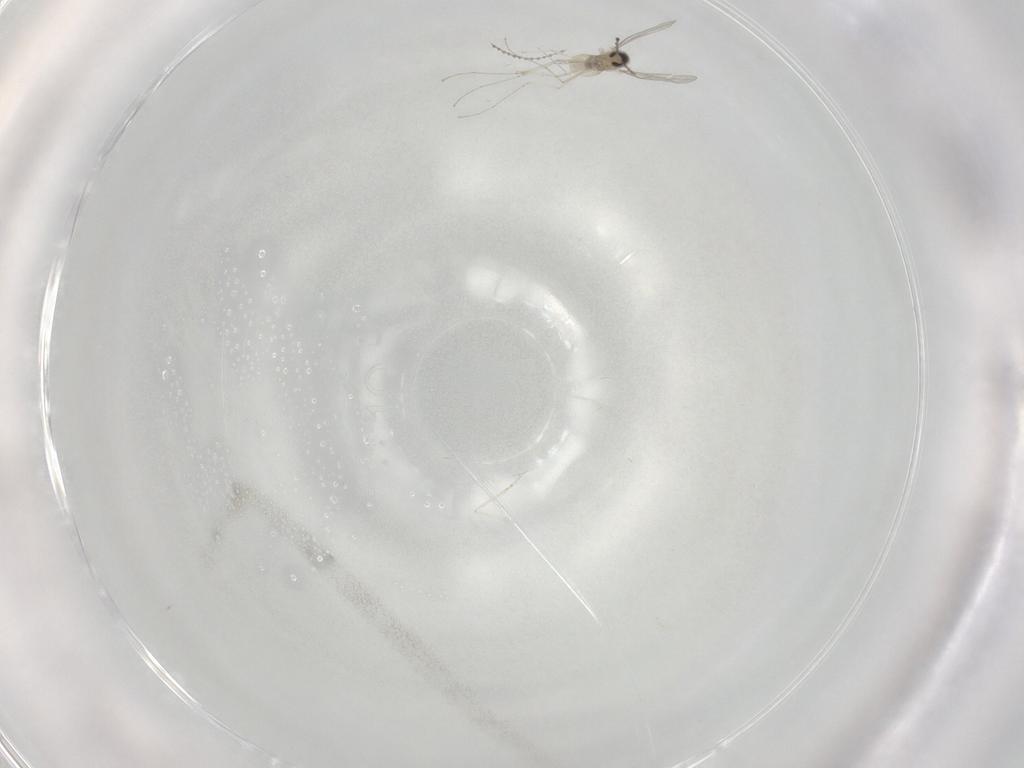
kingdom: Animalia
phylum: Arthropoda
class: Insecta
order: Diptera
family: Cecidomyiidae
